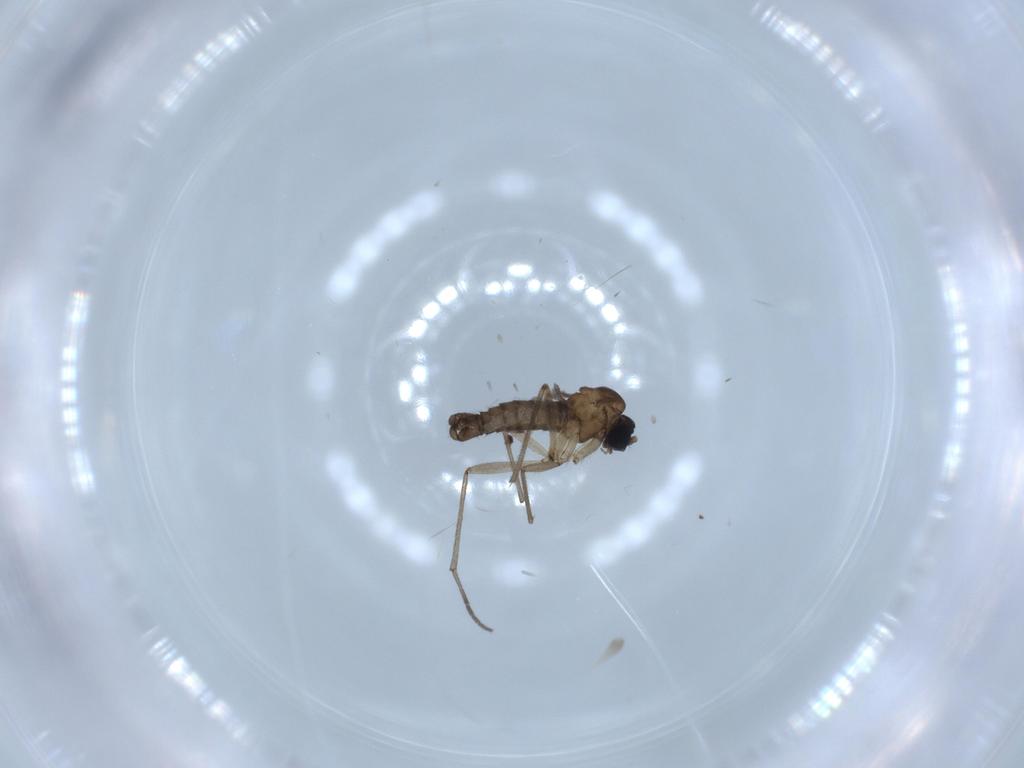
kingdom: Animalia
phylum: Arthropoda
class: Insecta
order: Diptera
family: Sciaridae
